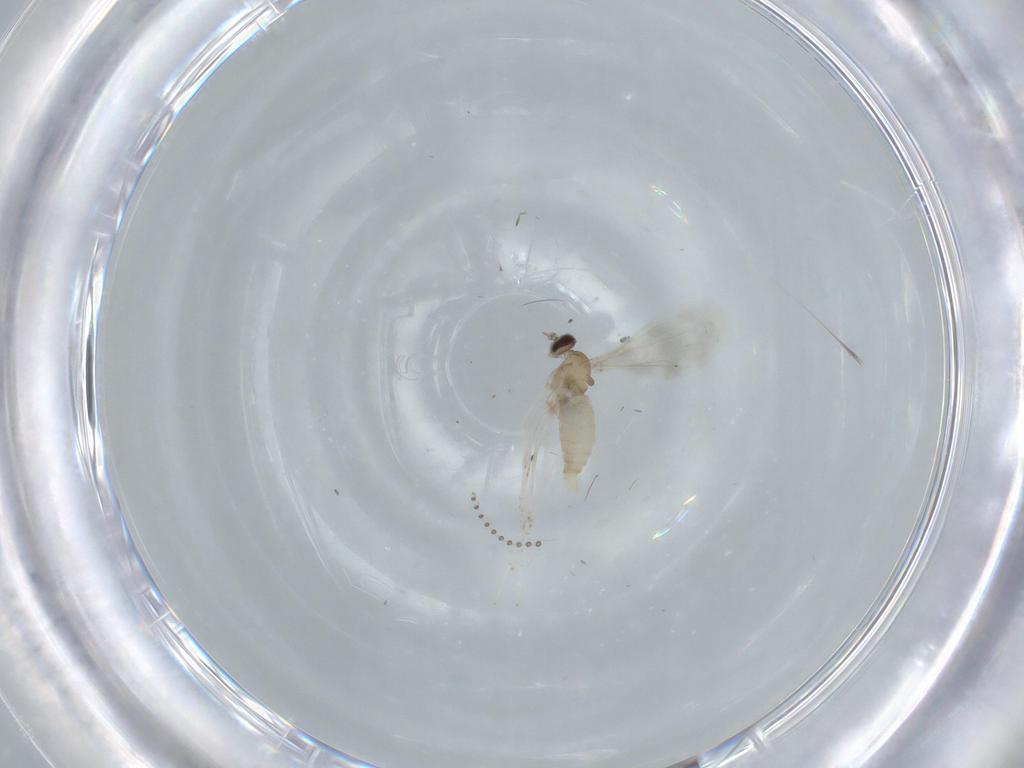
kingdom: Animalia
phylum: Arthropoda
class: Insecta
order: Diptera
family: Cecidomyiidae
